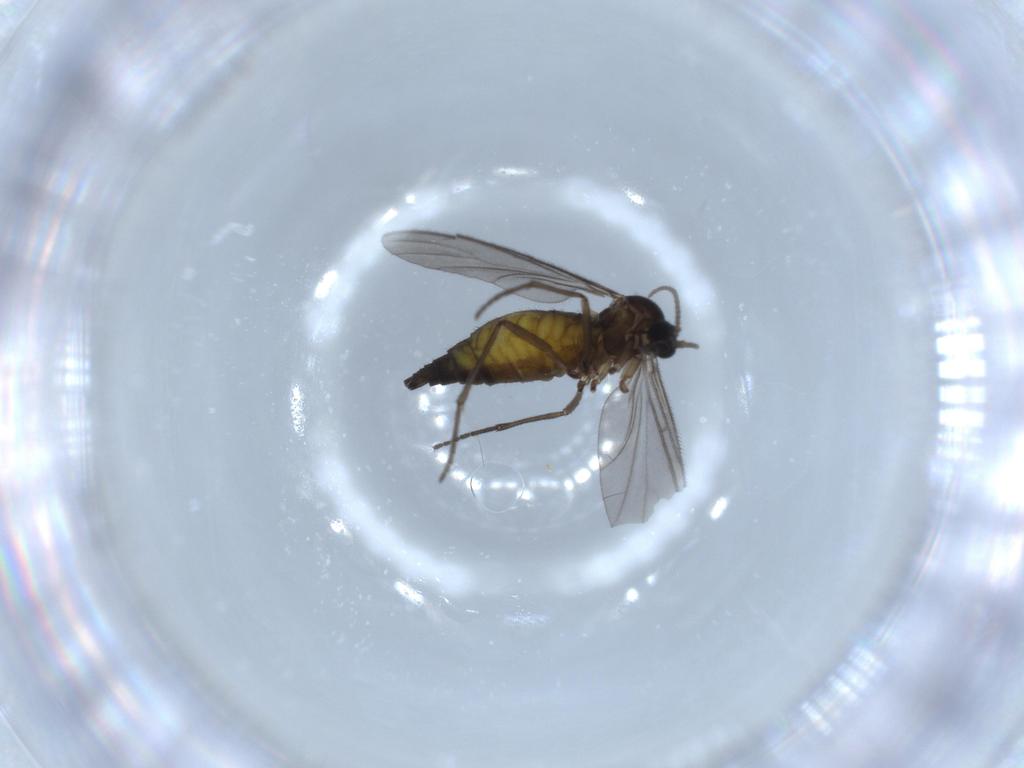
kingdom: Animalia
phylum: Arthropoda
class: Insecta
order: Diptera
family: Sciaridae
